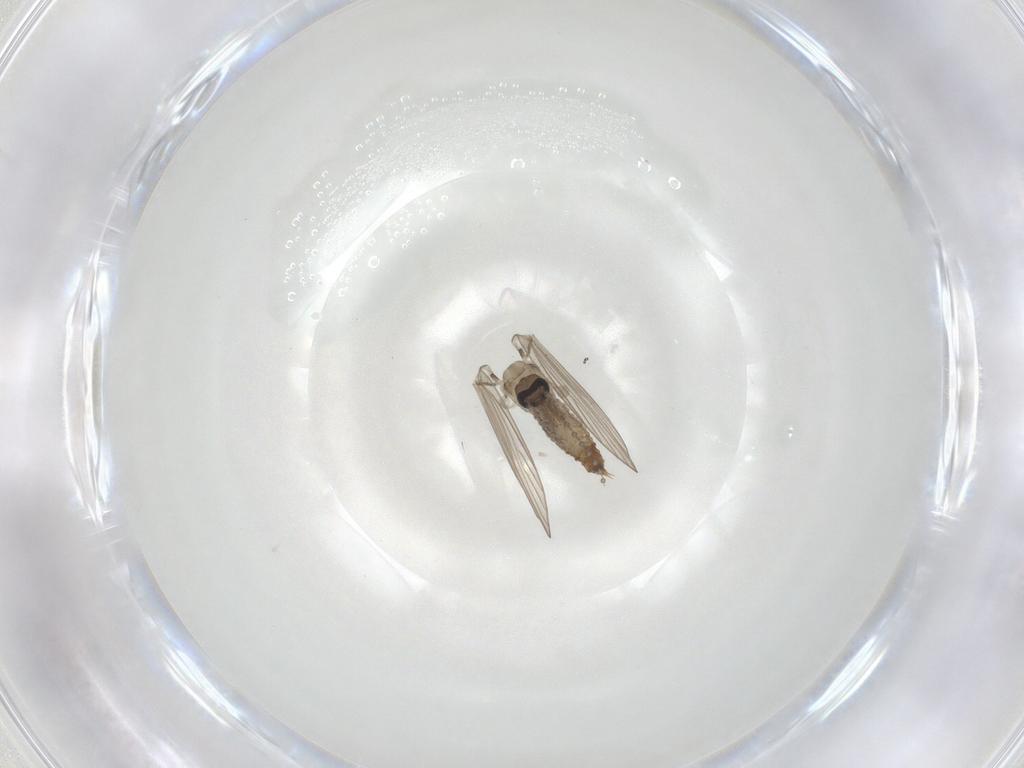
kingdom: Animalia
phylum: Arthropoda
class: Insecta
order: Diptera
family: Psychodidae
